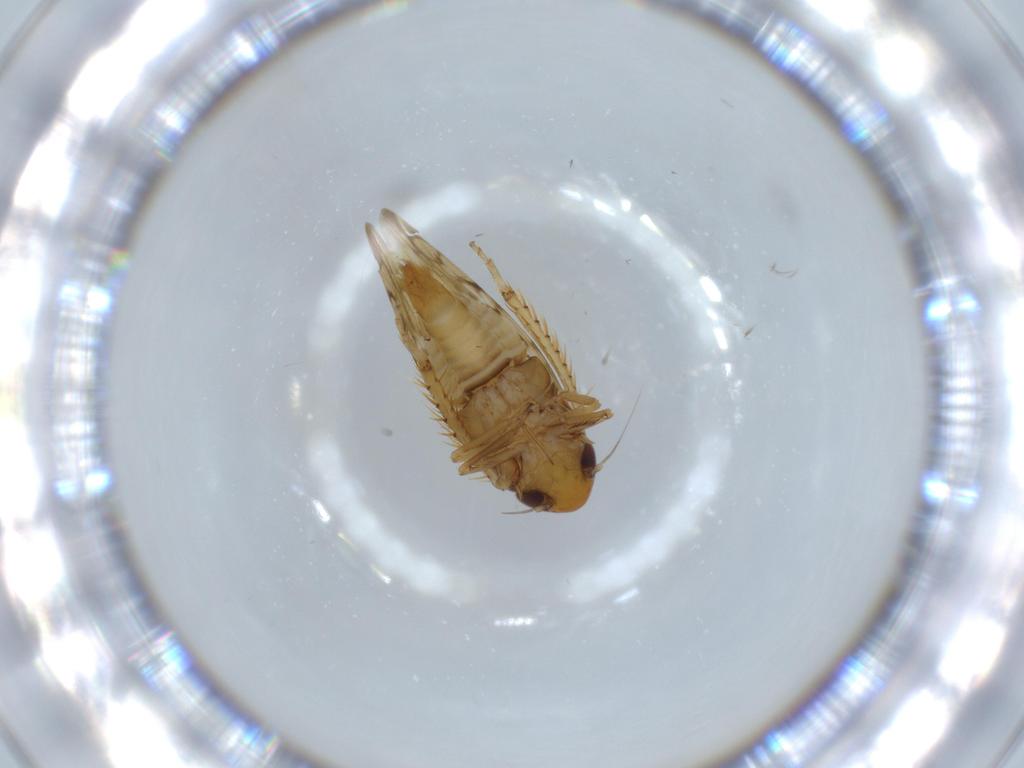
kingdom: Animalia
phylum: Arthropoda
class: Insecta
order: Hemiptera
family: Cicadellidae
